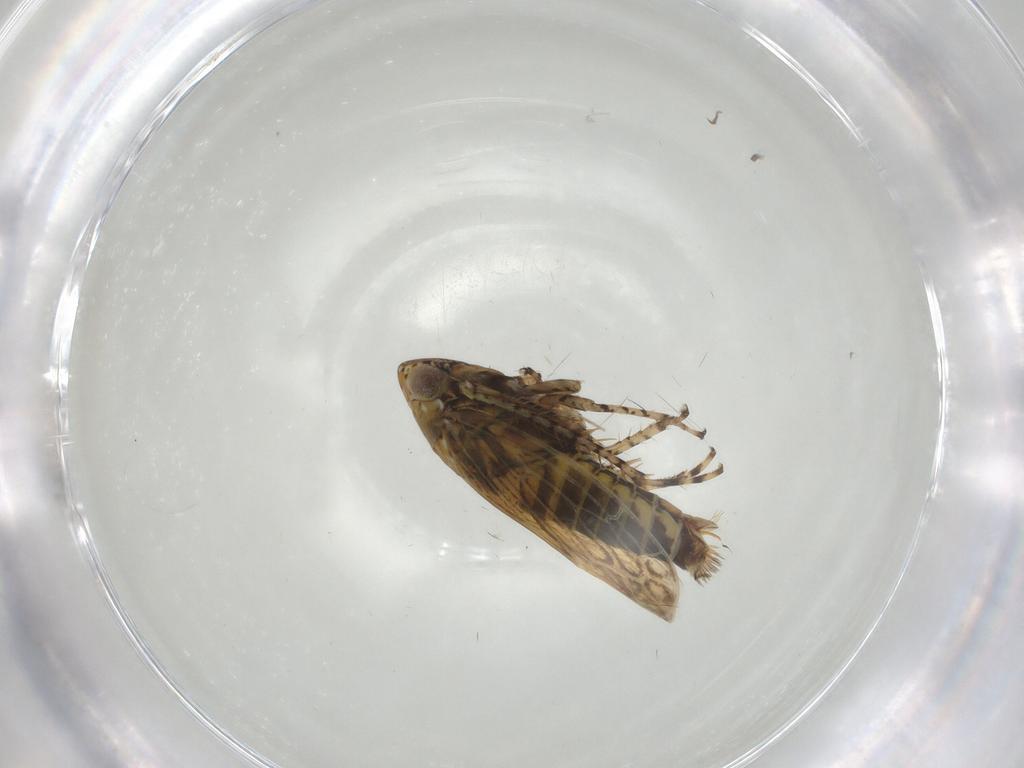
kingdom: Animalia
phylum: Arthropoda
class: Insecta
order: Hemiptera
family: Cicadellidae
